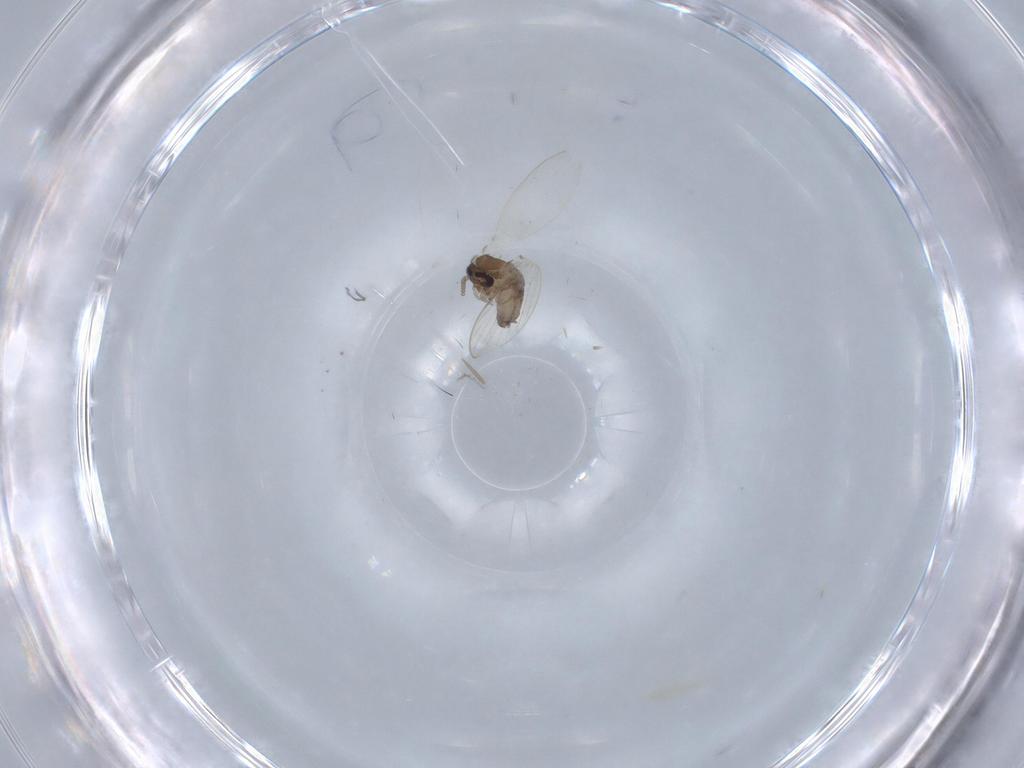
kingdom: Animalia
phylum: Arthropoda
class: Insecta
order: Diptera
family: Psychodidae
